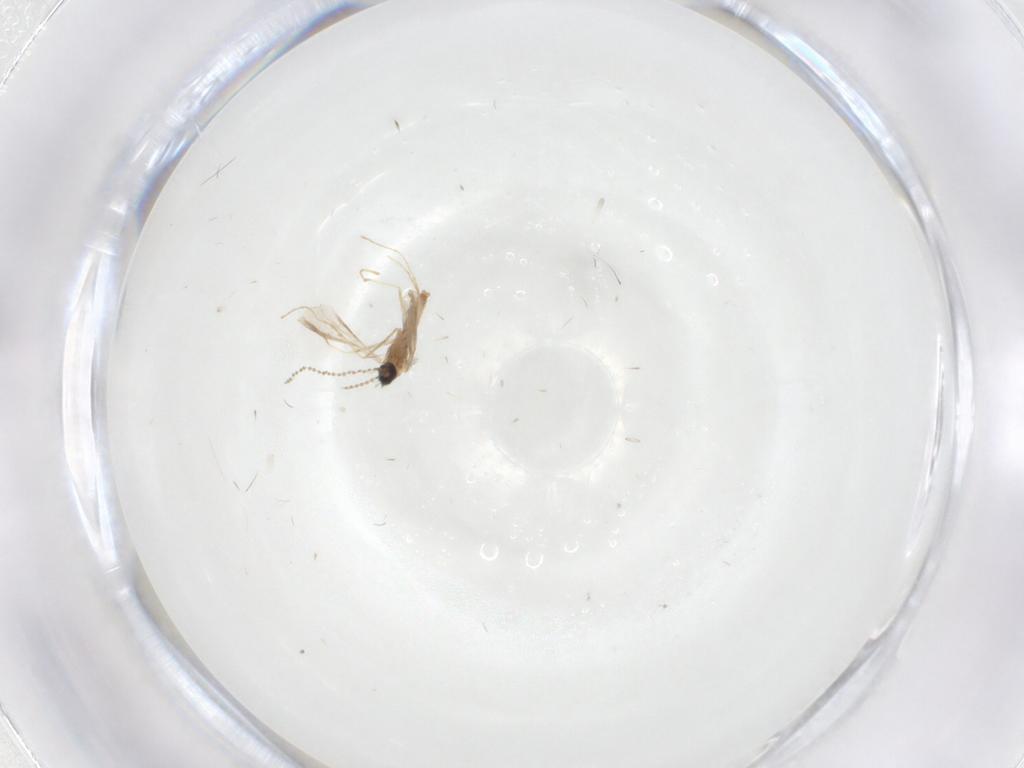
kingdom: Animalia
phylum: Arthropoda
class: Insecta
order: Diptera
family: Cecidomyiidae
